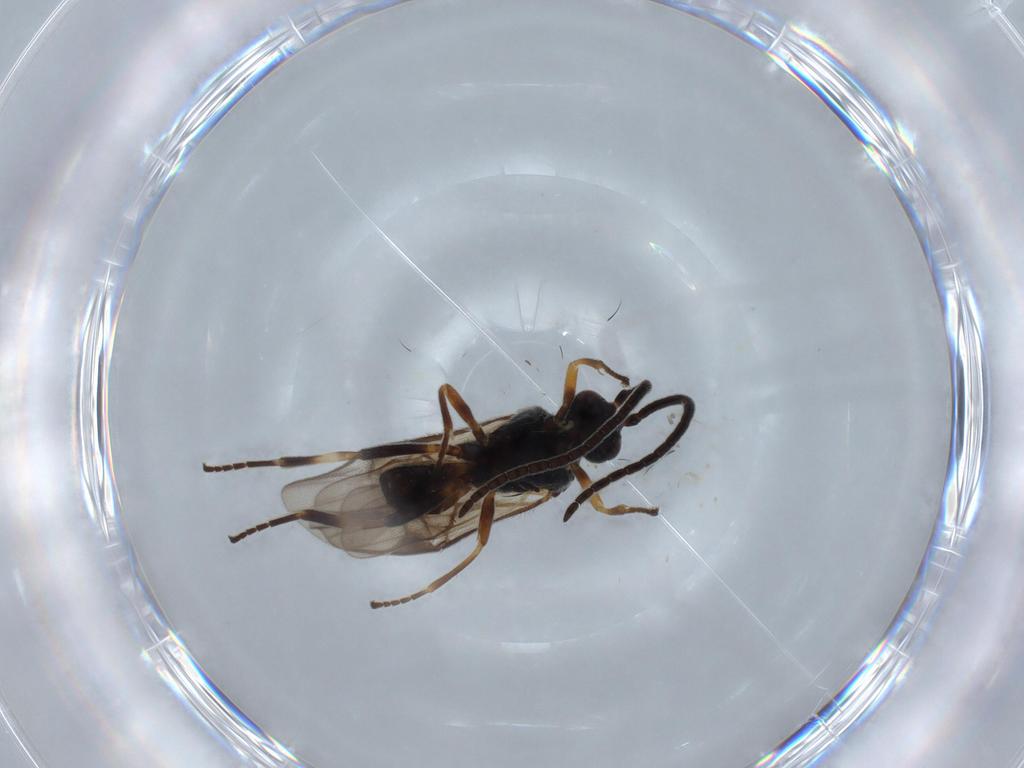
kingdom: Animalia
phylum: Arthropoda
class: Insecta
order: Hymenoptera
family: Braconidae
